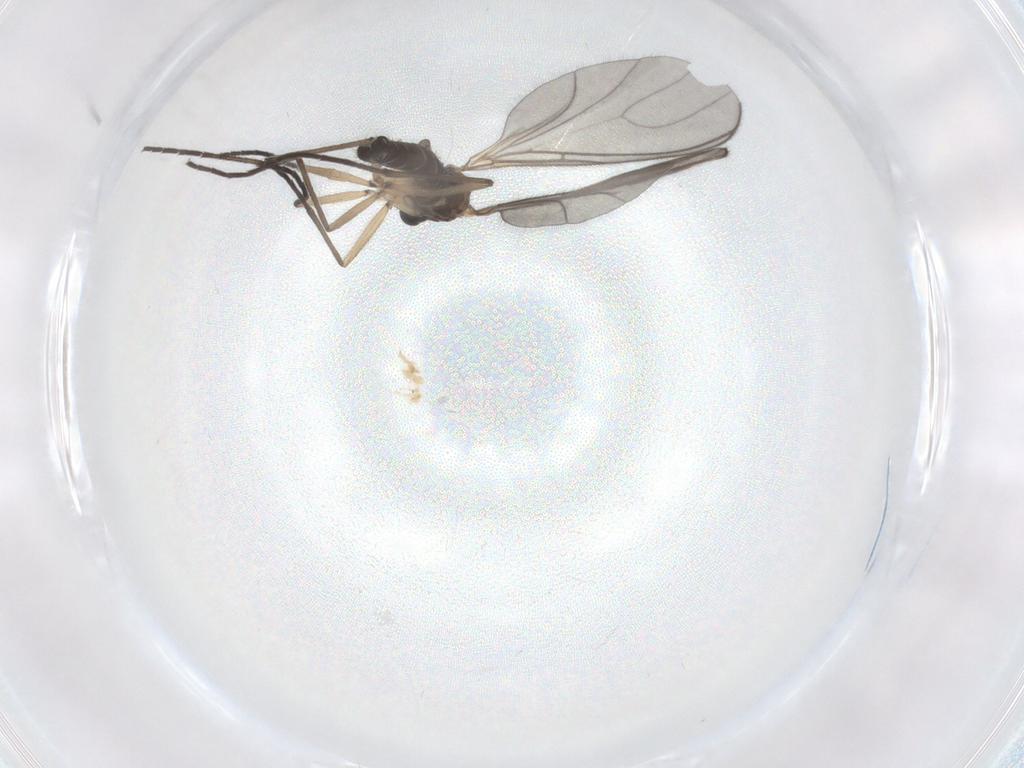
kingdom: Animalia
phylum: Arthropoda
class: Insecta
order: Diptera
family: Sciaridae
